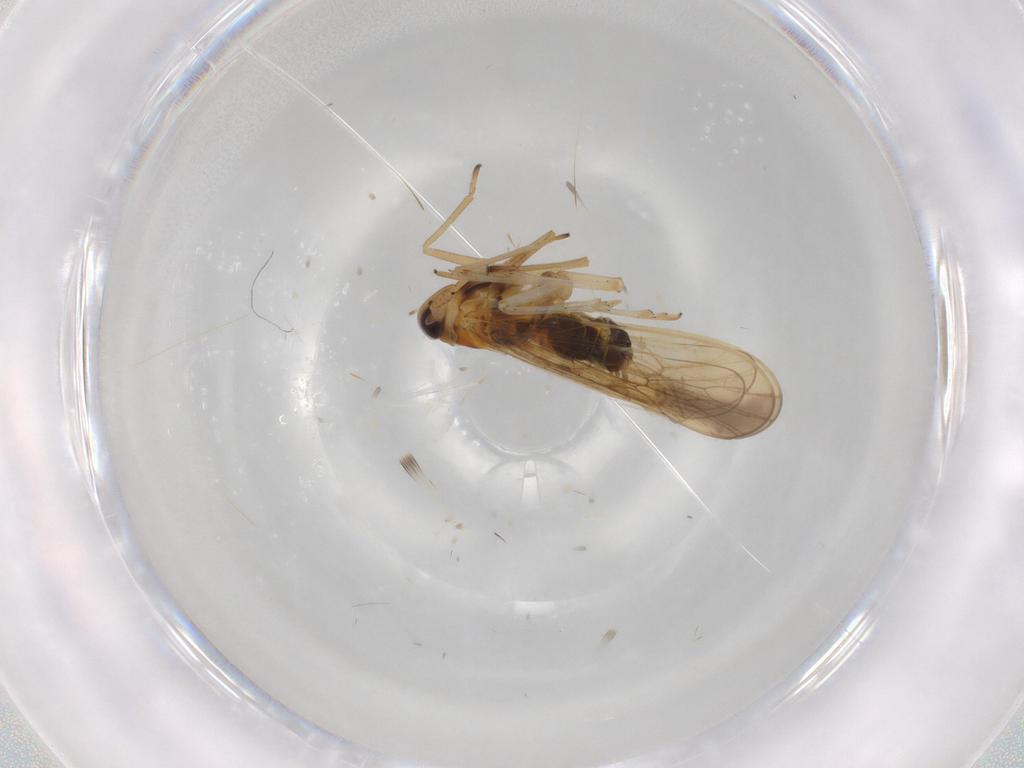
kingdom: Animalia
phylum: Arthropoda
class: Insecta
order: Hemiptera
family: Delphacidae
